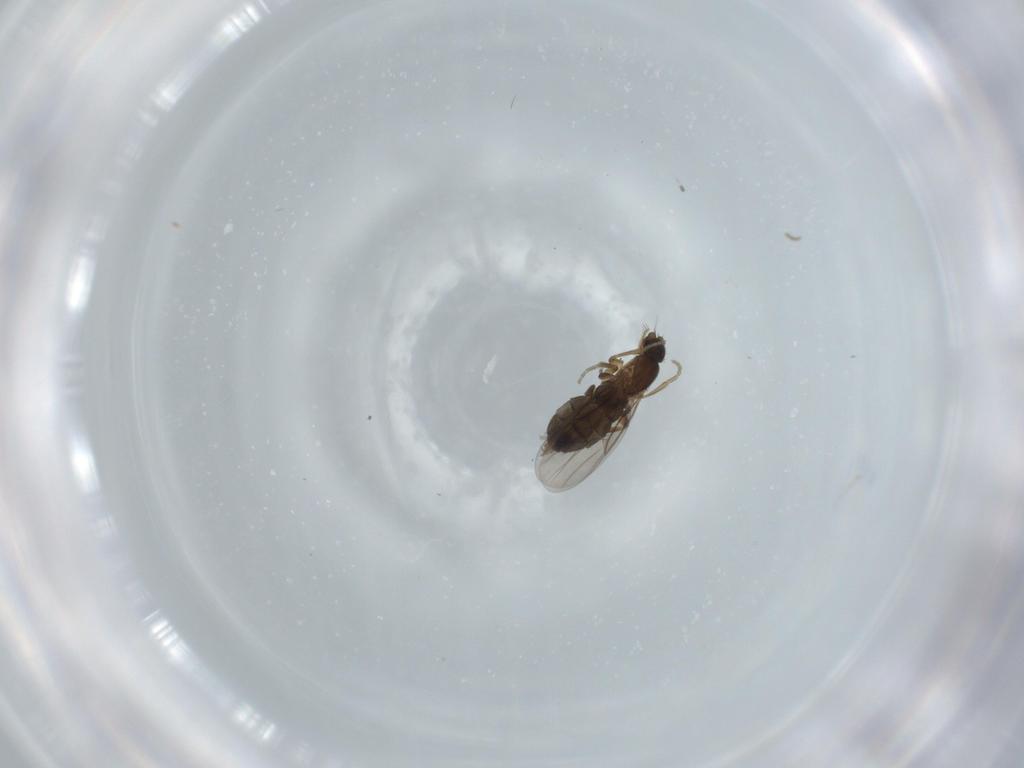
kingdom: Animalia
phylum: Arthropoda
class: Insecta
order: Diptera
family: Phoridae
